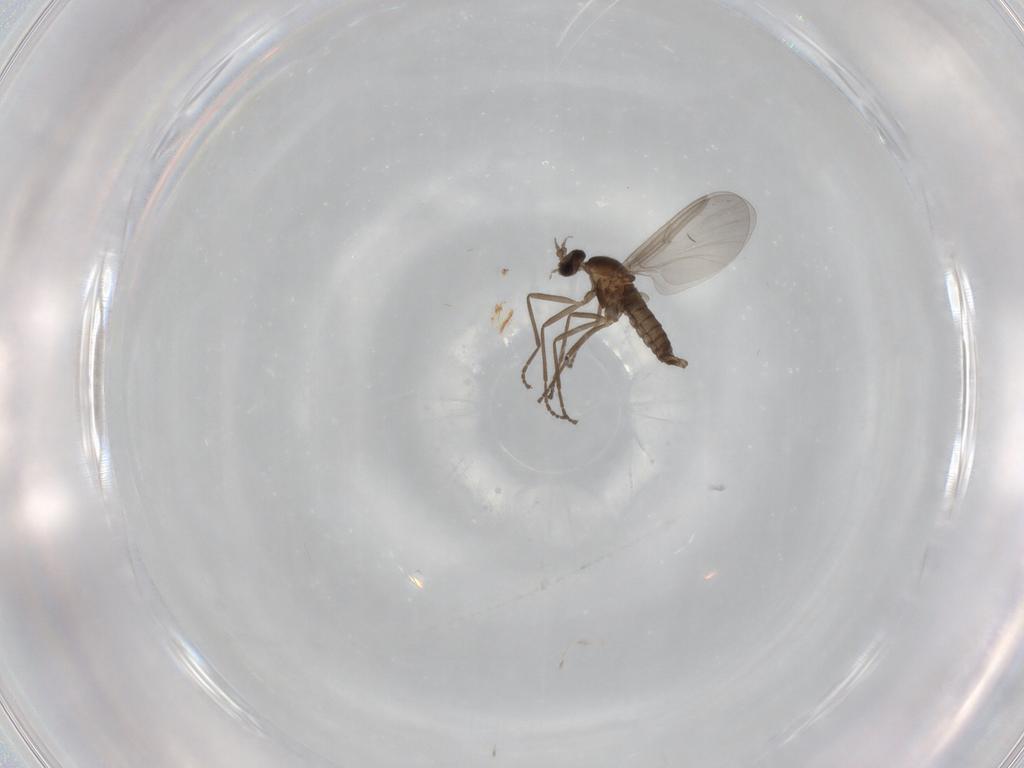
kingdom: Animalia
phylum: Arthropoda
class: Insecta
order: Diptera
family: Cecidomyiidae
